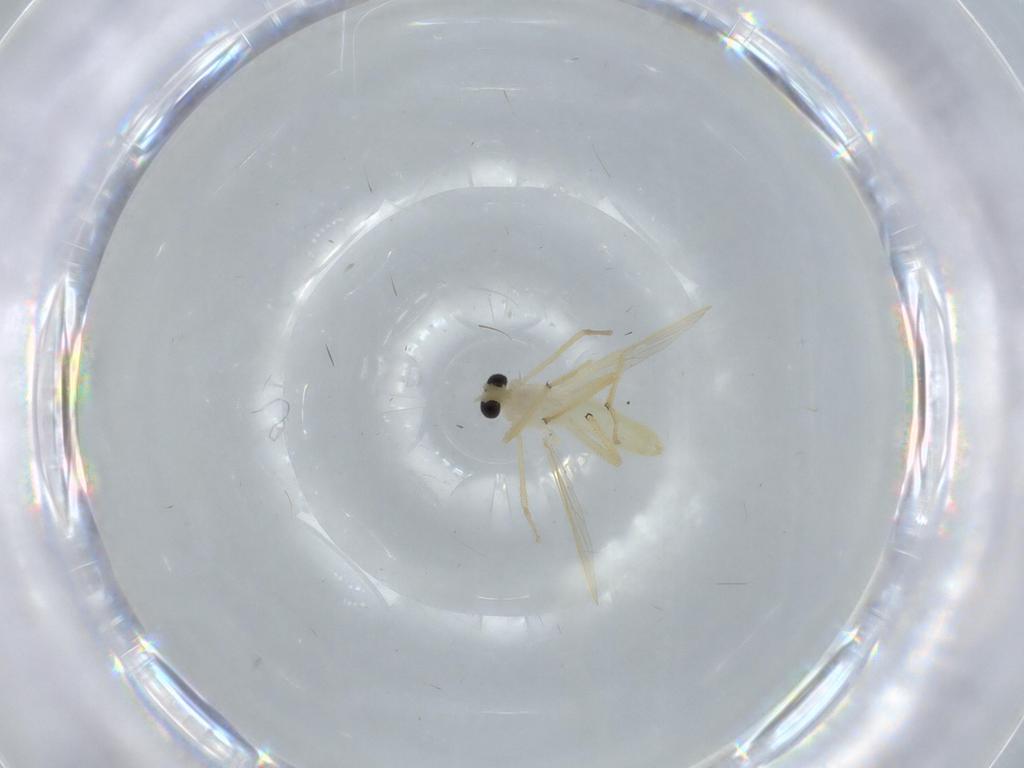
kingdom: Animalia
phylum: Arthropoda
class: Insecta
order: Diptera
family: Chironomidae
